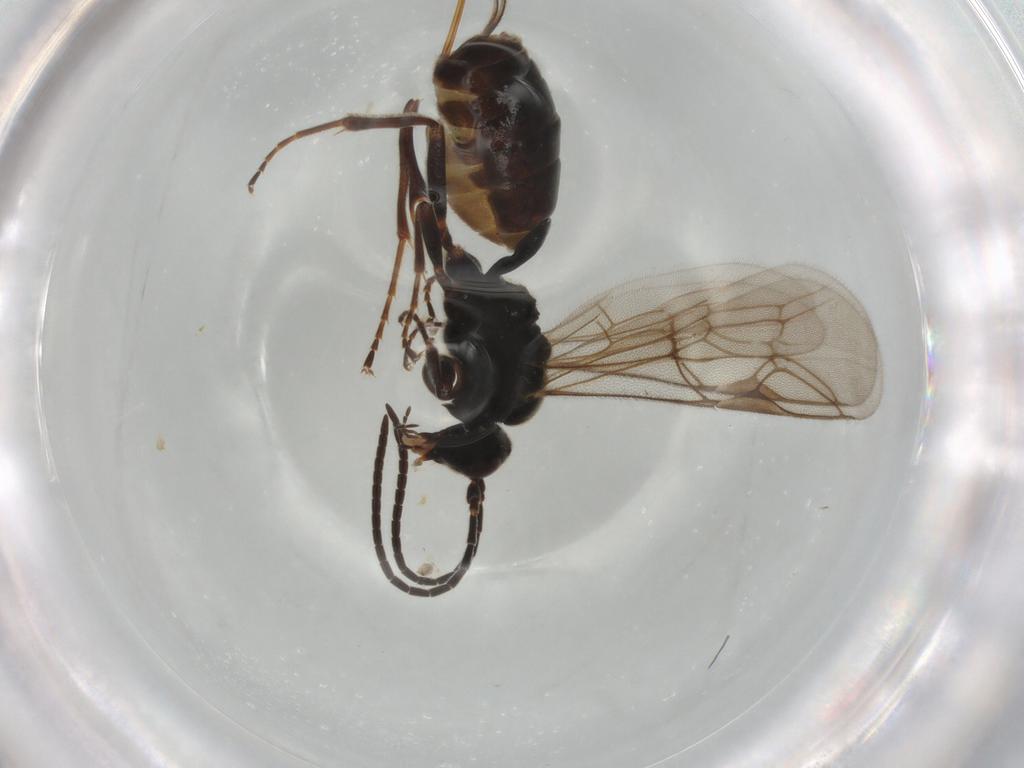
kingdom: Animalia
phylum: Arthropoda
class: Insecta
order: Hymenoptera
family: Ichneumonidae
